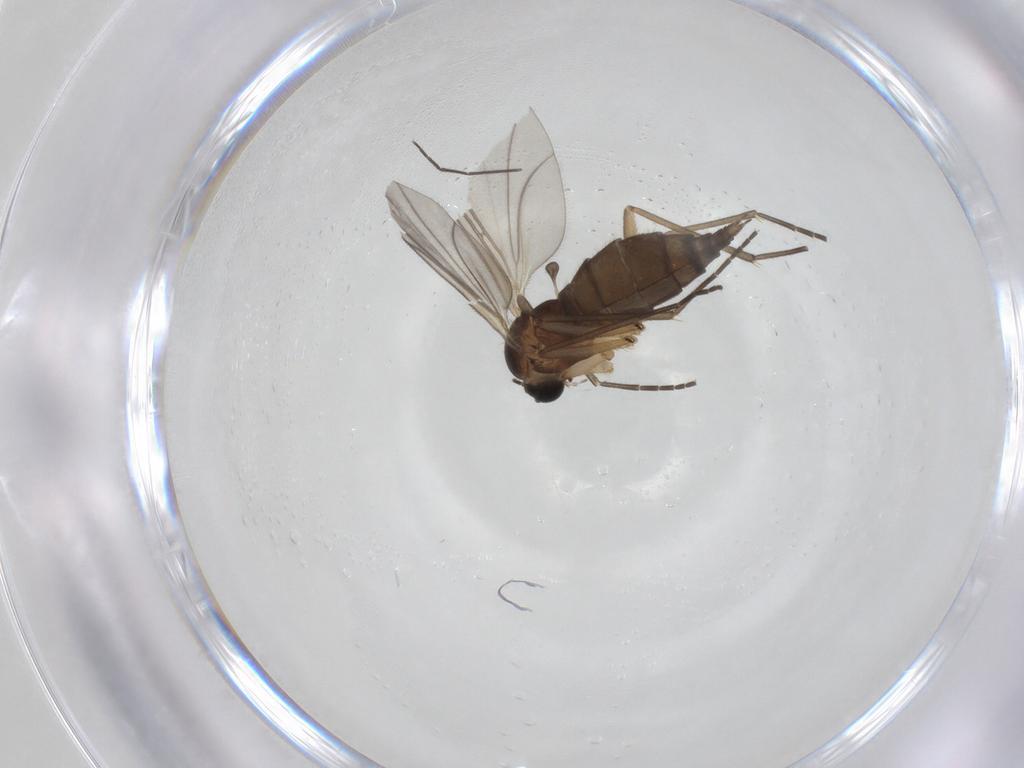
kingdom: Animalia
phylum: Arthropoda
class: Insecta
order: Diptera
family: Sciaridae
